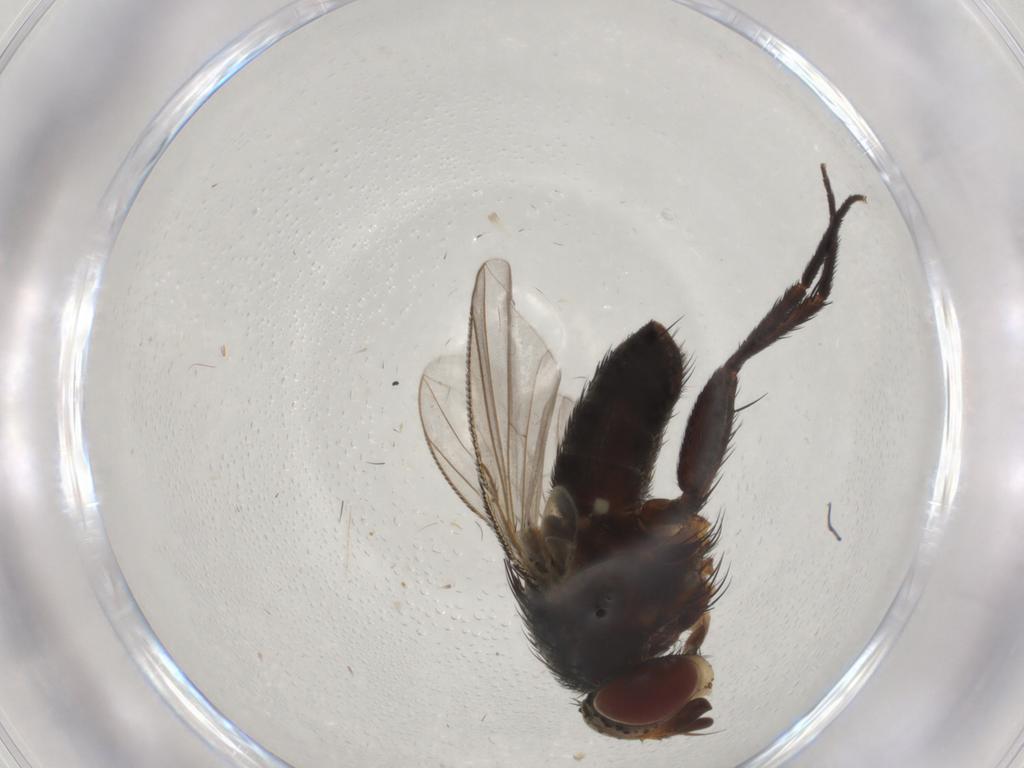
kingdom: Animalia
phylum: Arthropoda
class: Insecta
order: Diptera
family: Tachinidae
